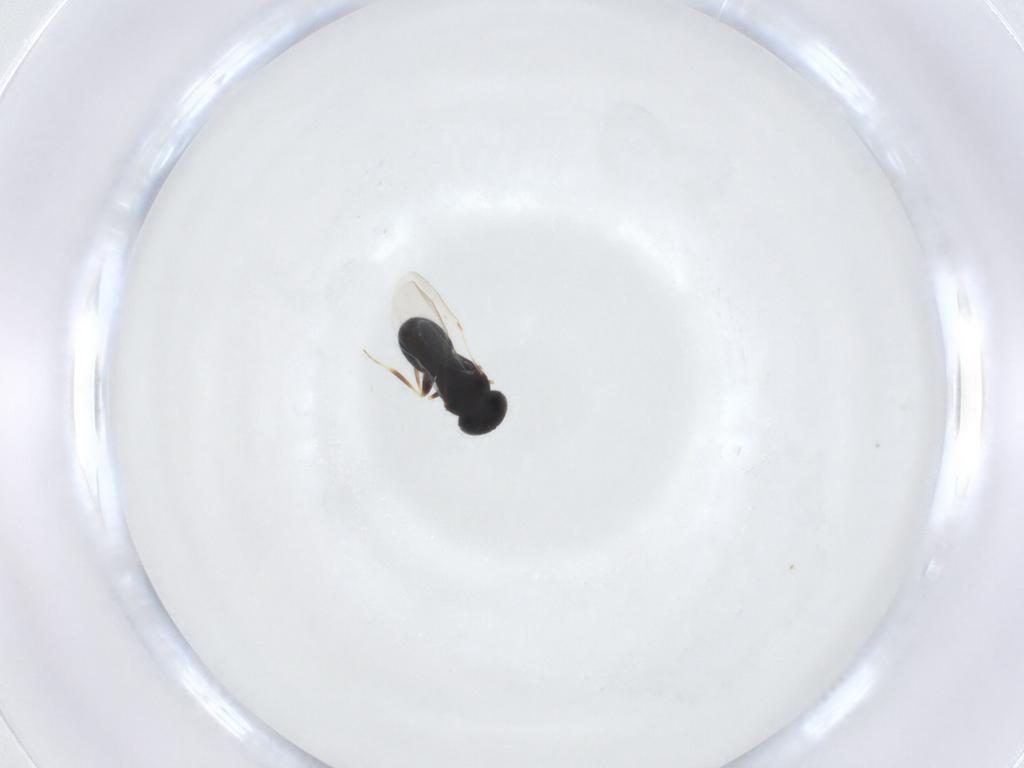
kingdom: Animalia
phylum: Arthropoda
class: Insecta
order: Hymenoptera
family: Scelionidae
